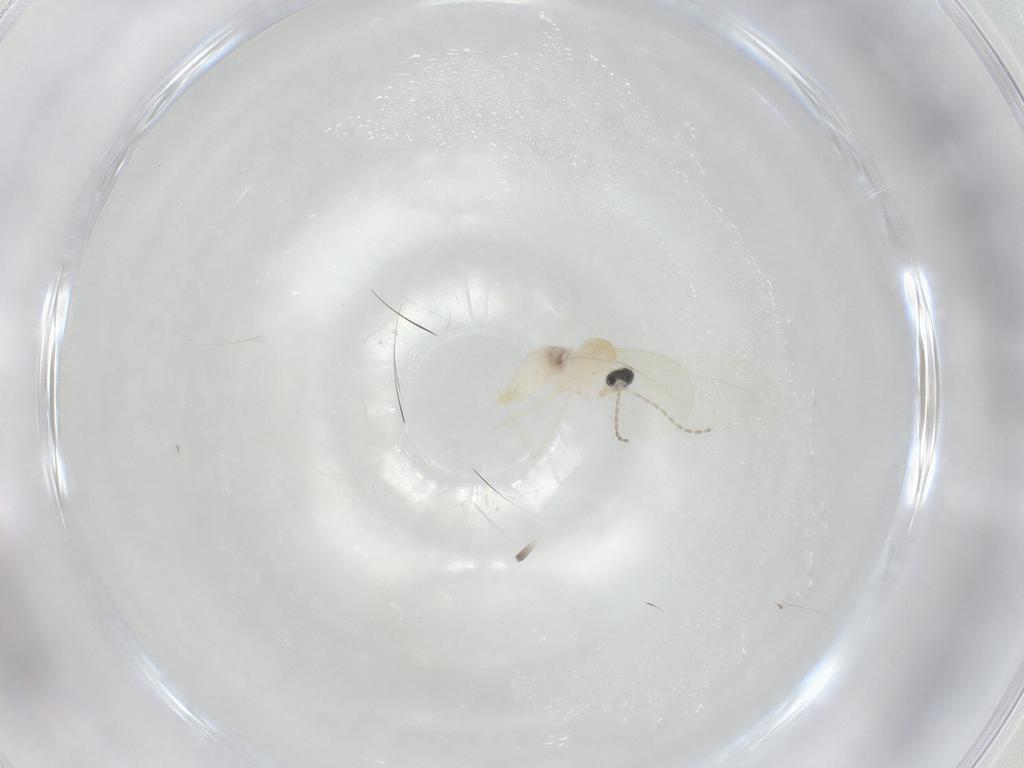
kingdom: Animalia
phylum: Arthropoda
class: Insecta
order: Diptera
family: Cecidomyiidae
